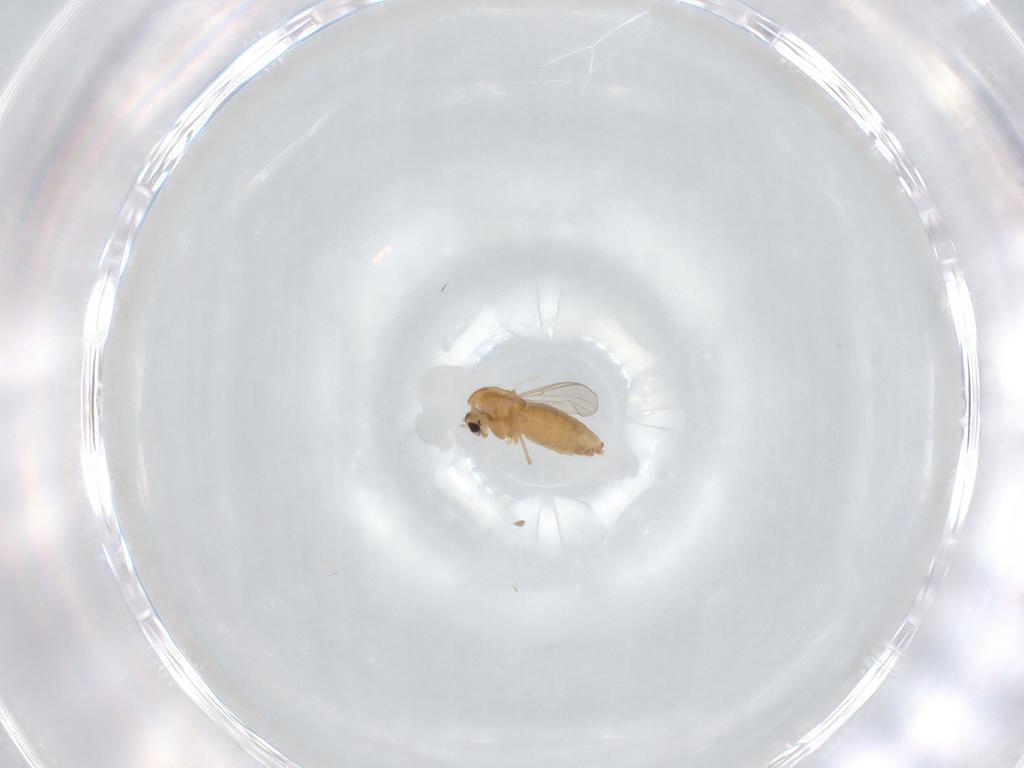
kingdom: Animalia
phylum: Arthropoda
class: Insecta
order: Diptera
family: Chironomidae
